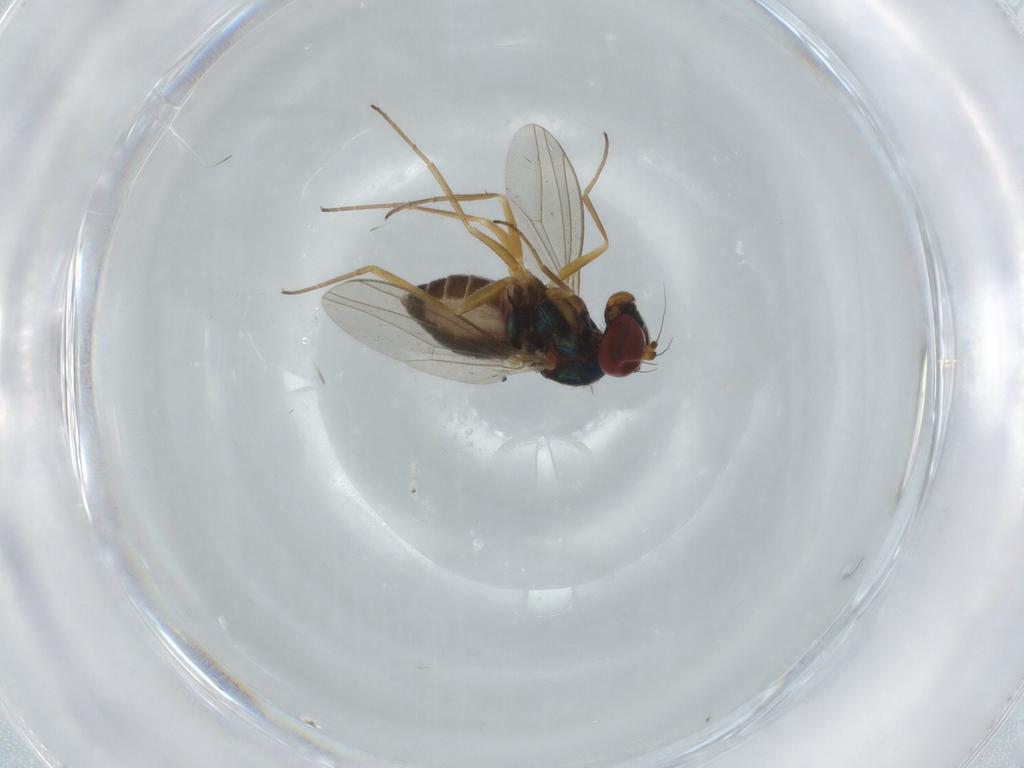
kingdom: Animalia
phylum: Arthropoda
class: Insecta
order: Diptera
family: Dolichopodidae
